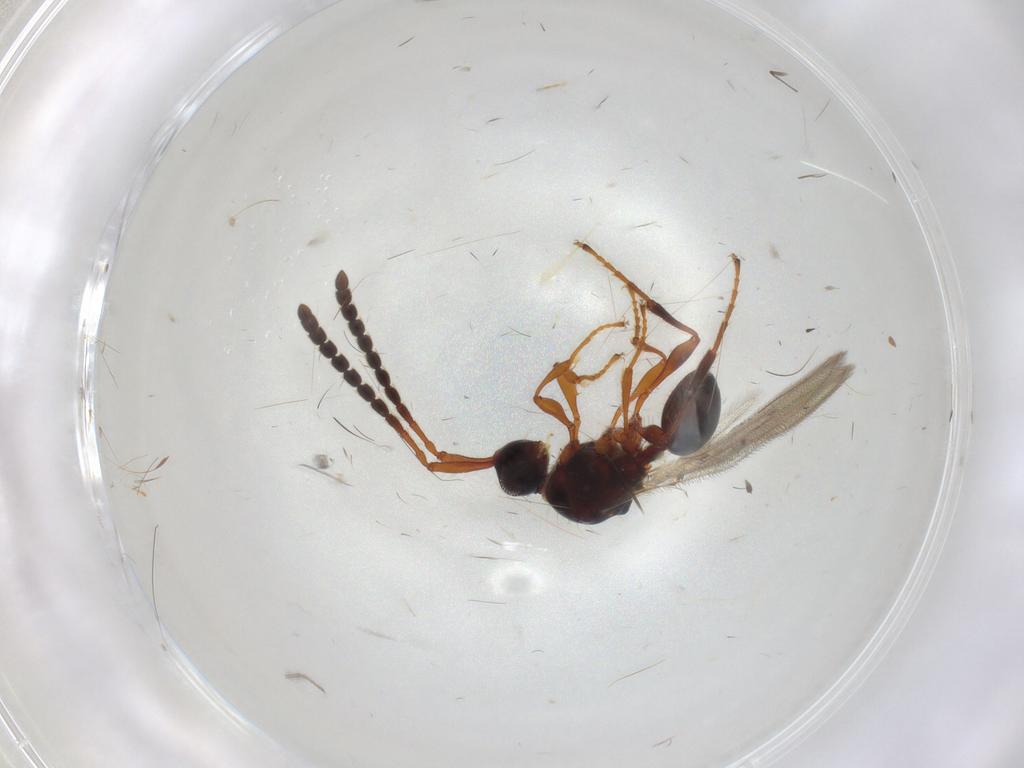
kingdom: Animalia
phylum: Arthropoda
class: Insecta
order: Hymenoptera
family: Diapriidae
